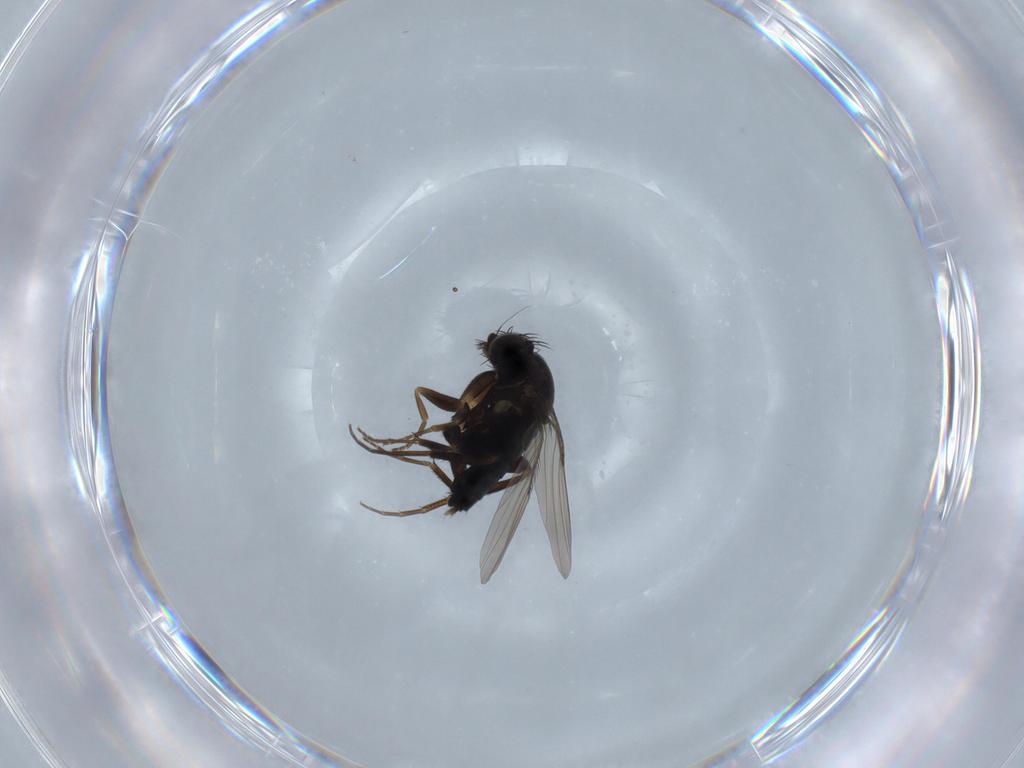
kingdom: Animalia
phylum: Arthropoda
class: Insecta
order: Diptera
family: Phoridae
